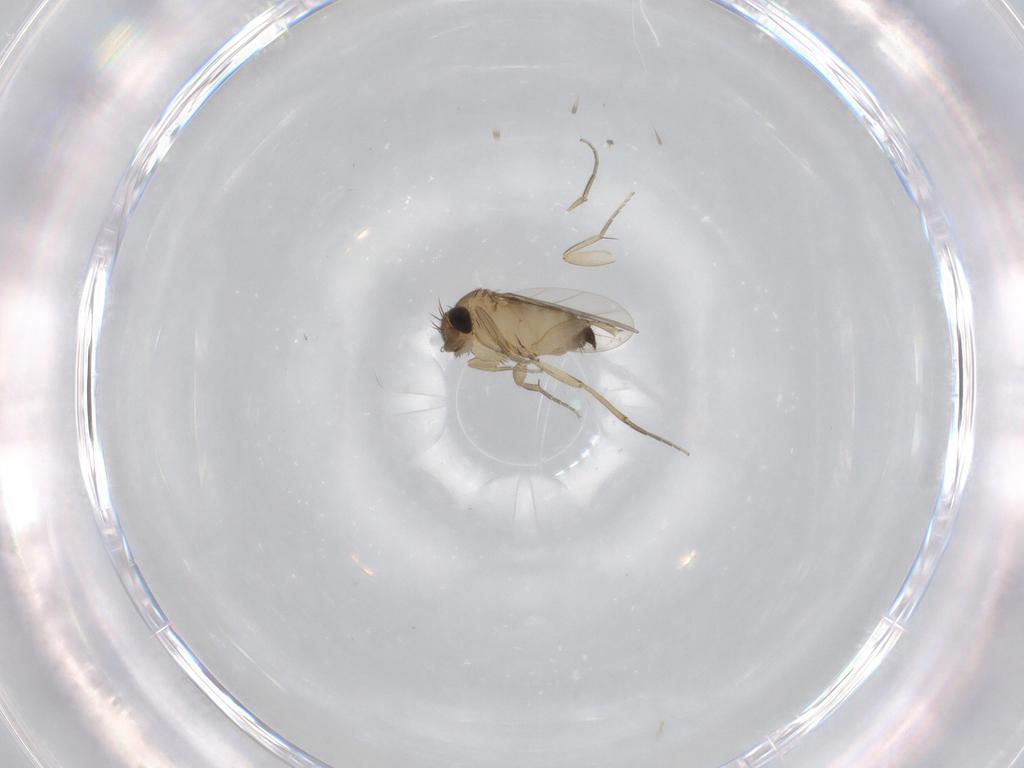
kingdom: Animalia
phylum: Arthropoda
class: Insecta
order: Diptera
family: Phoridae
